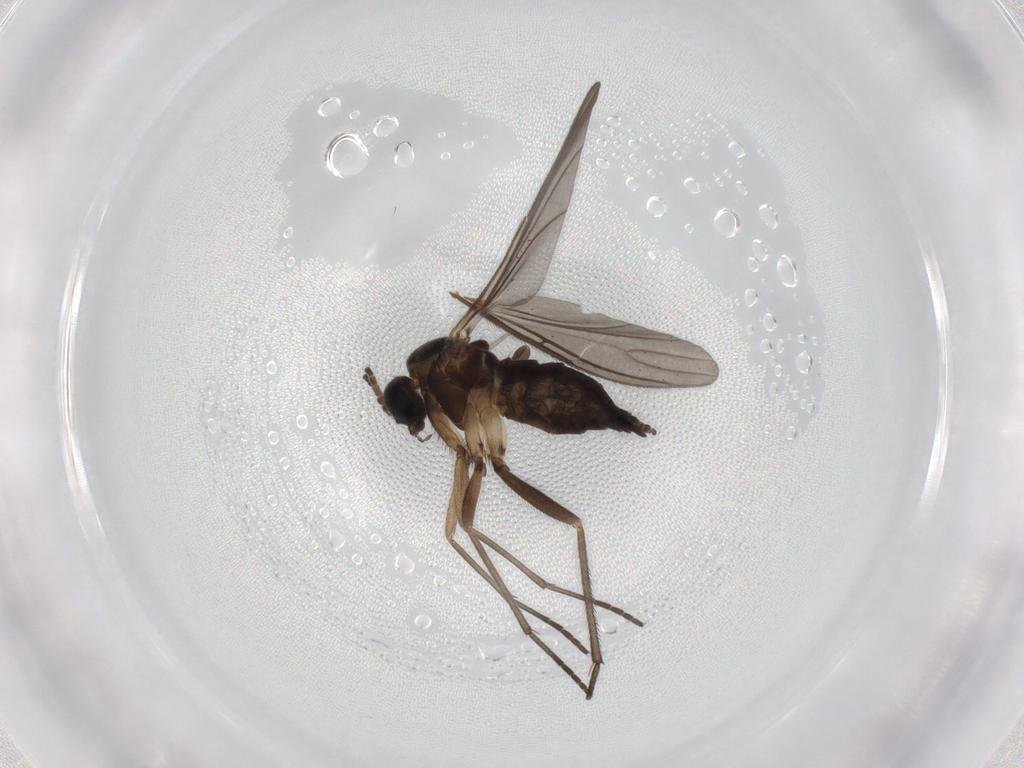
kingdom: Animalia
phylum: Arthropoda
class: Insecta
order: Diptera
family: Sciaridae
